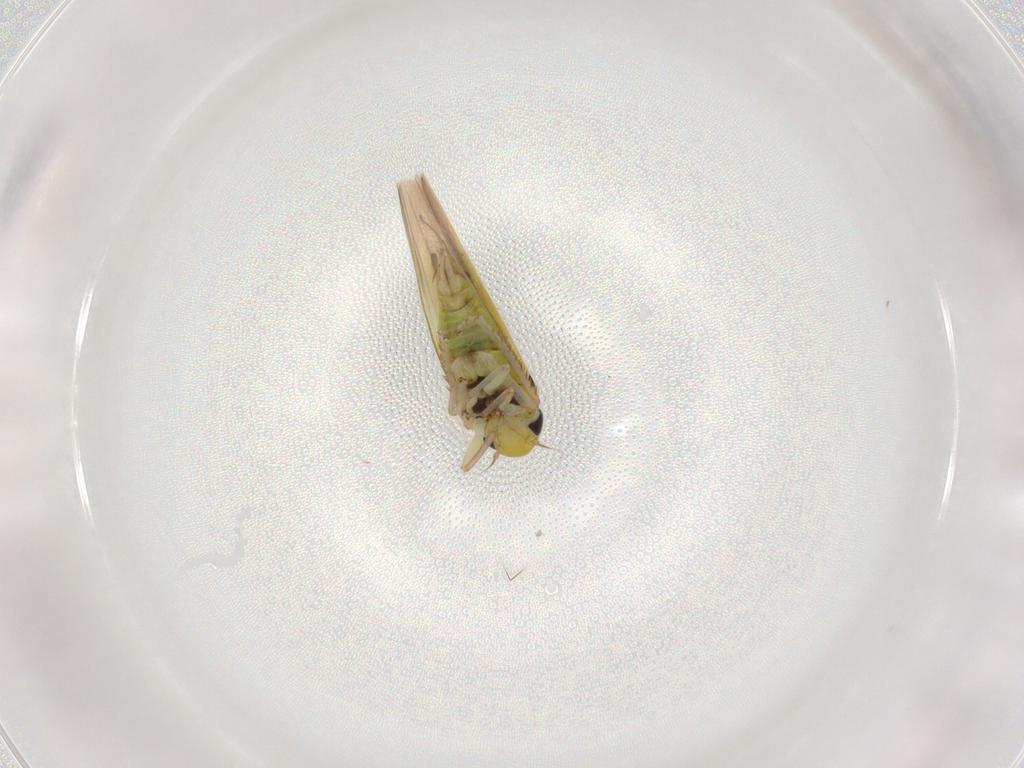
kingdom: Animalia
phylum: Arthropoda
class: Insecta
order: Hemiptera
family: Cicadellidae
